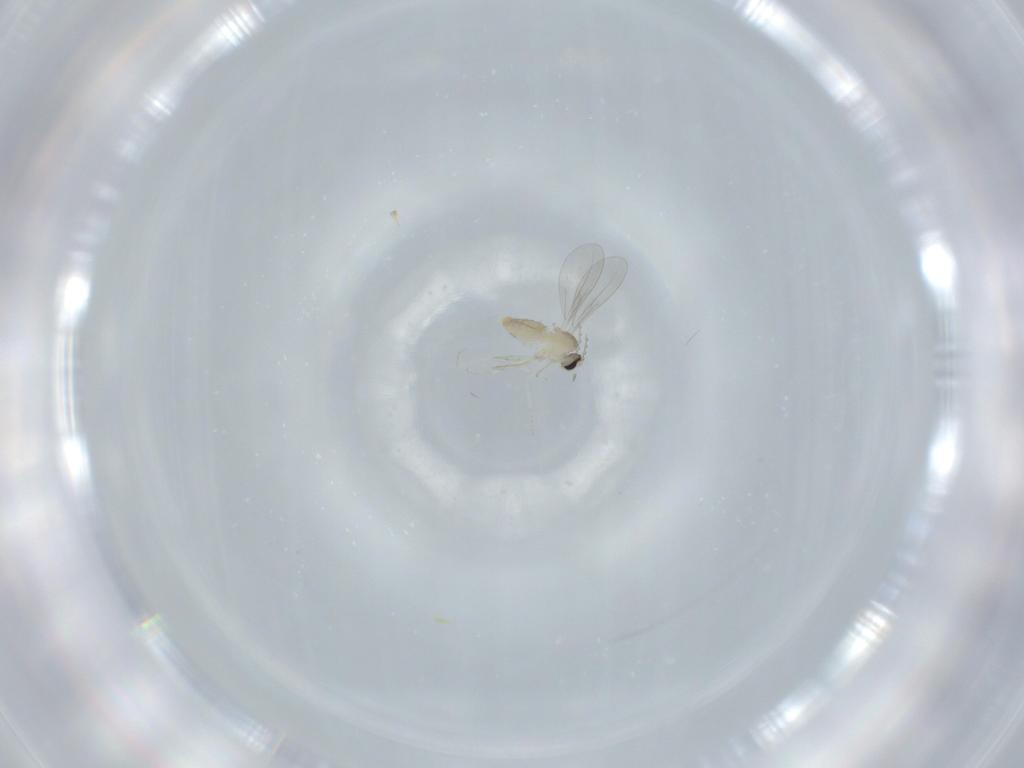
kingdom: Animalia
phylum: Arthropoda
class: Insecta
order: Diptera
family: Cecidomyiidae
